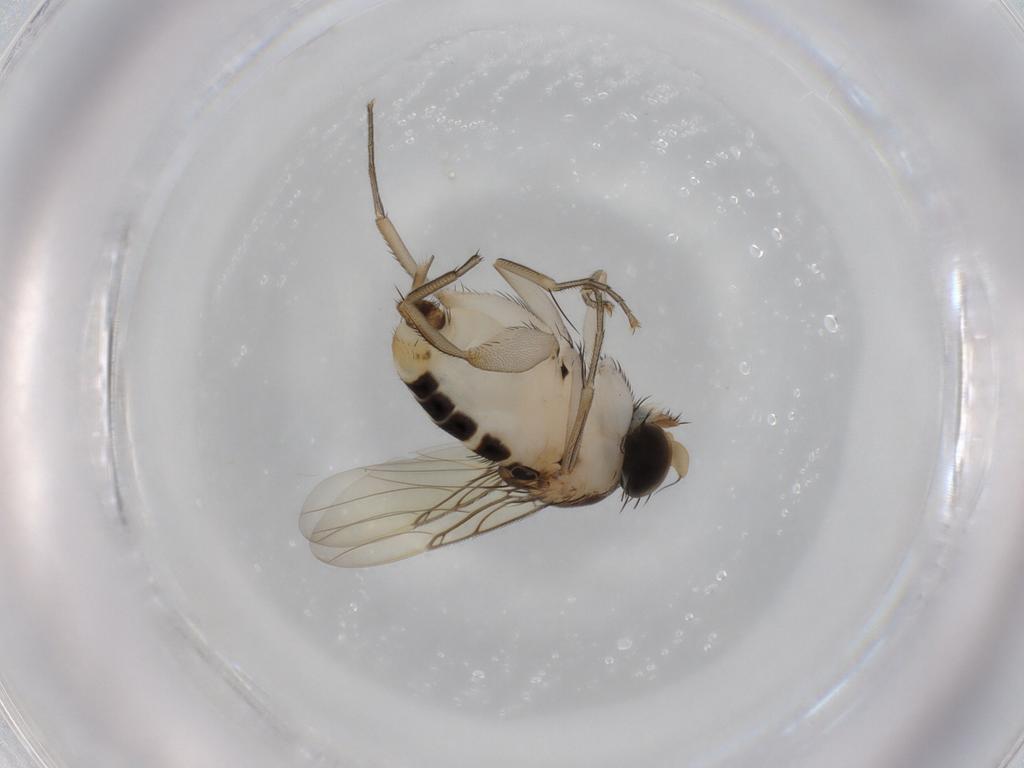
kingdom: Animalia
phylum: Arthropoda
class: Insecta
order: Diptera
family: Phoridae
